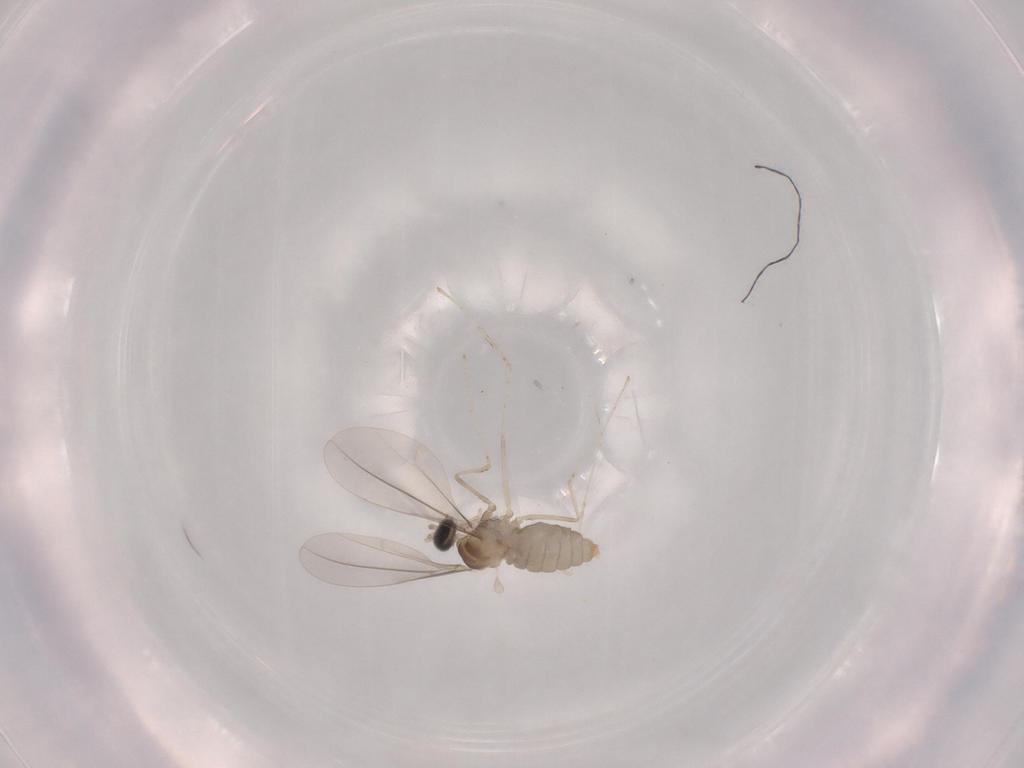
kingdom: Animalia
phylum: Arthropoda
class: Insecta
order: Diptera
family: Cecidomyiidae
